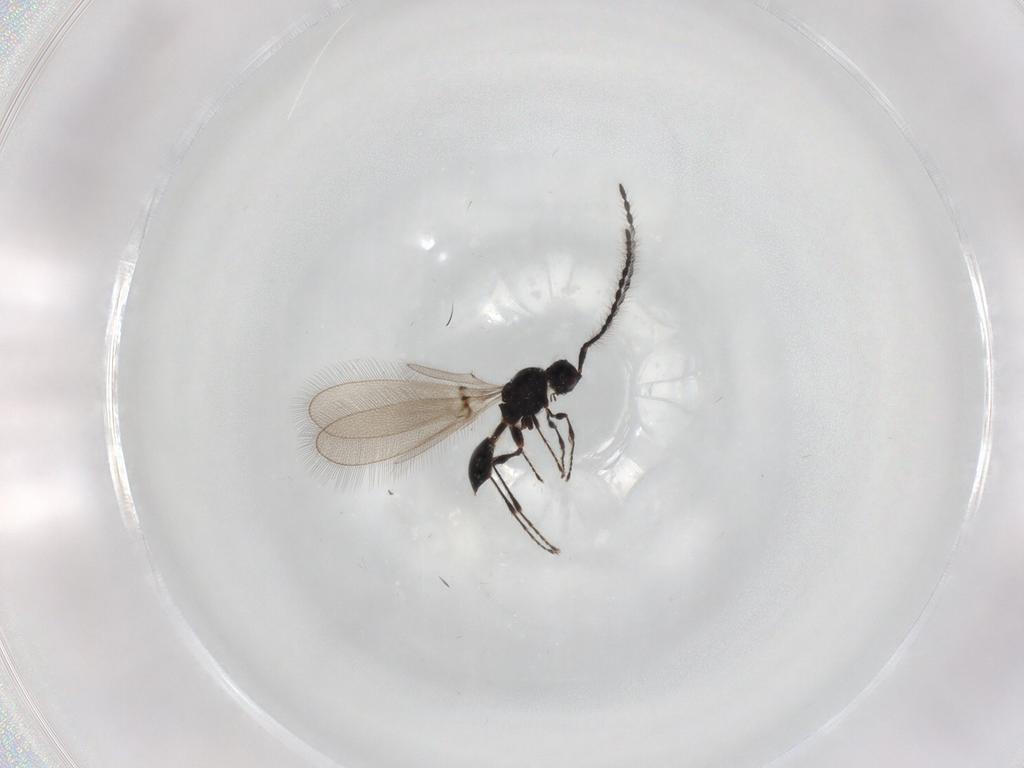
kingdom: Animalia
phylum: Arthropoda
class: Insecta
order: Hymenoptera
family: Diapriidae
